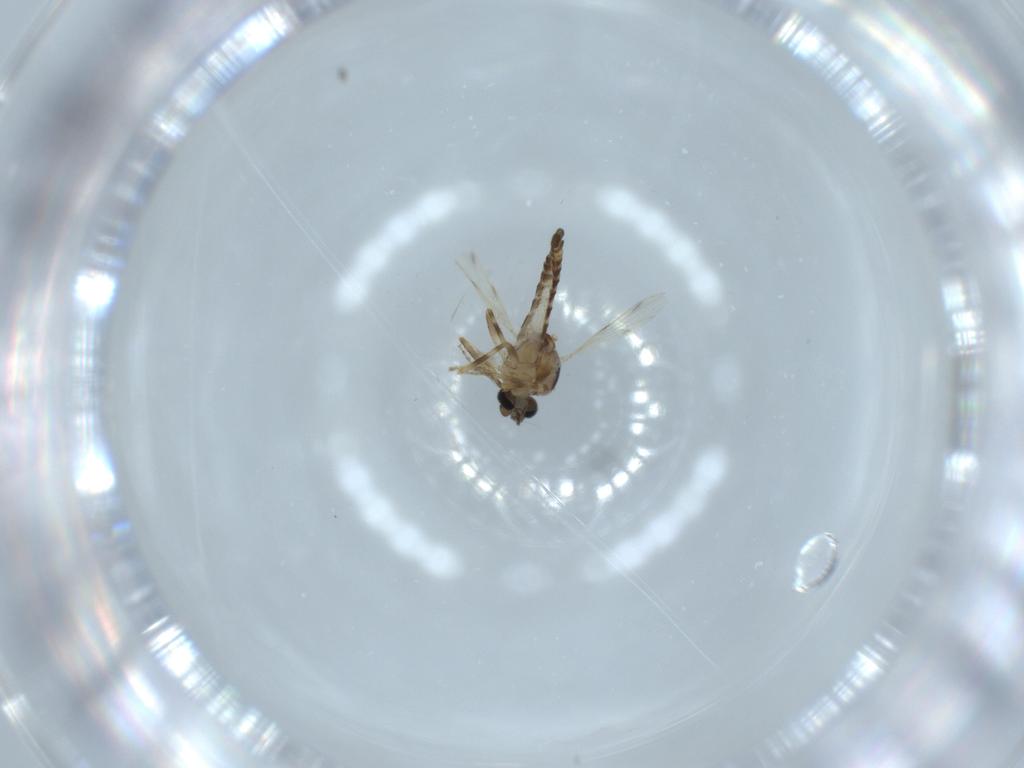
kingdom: Animalia
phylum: Arthropoda
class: Insecta
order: Diptera
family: Ceratopogonidae
